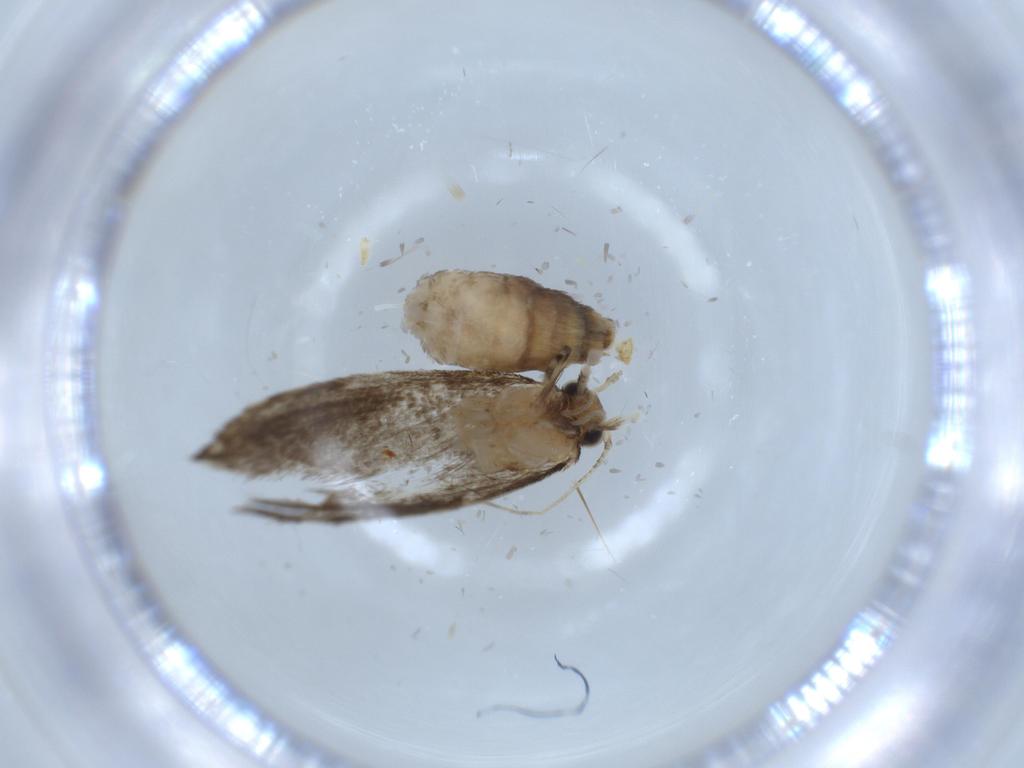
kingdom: Animalia
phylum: Arthropoda
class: Insecta
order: Lepidoptera
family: Tineidae
